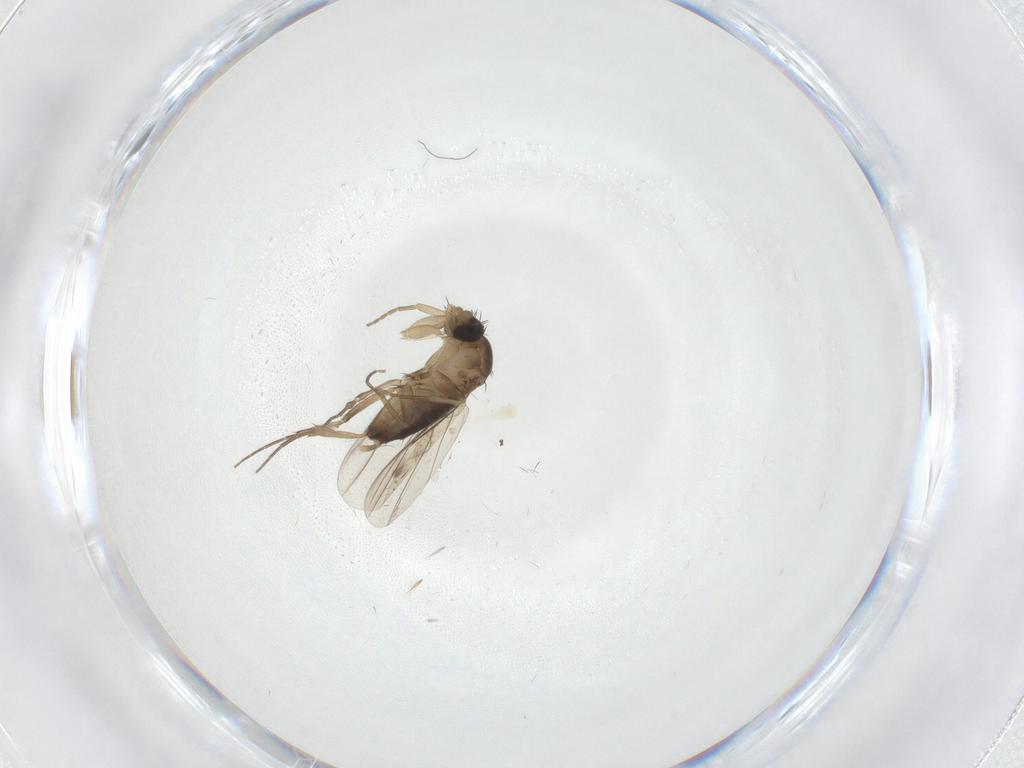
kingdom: Animalia
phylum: Arthropoda
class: Insecta
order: Diptera
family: Phoridae
